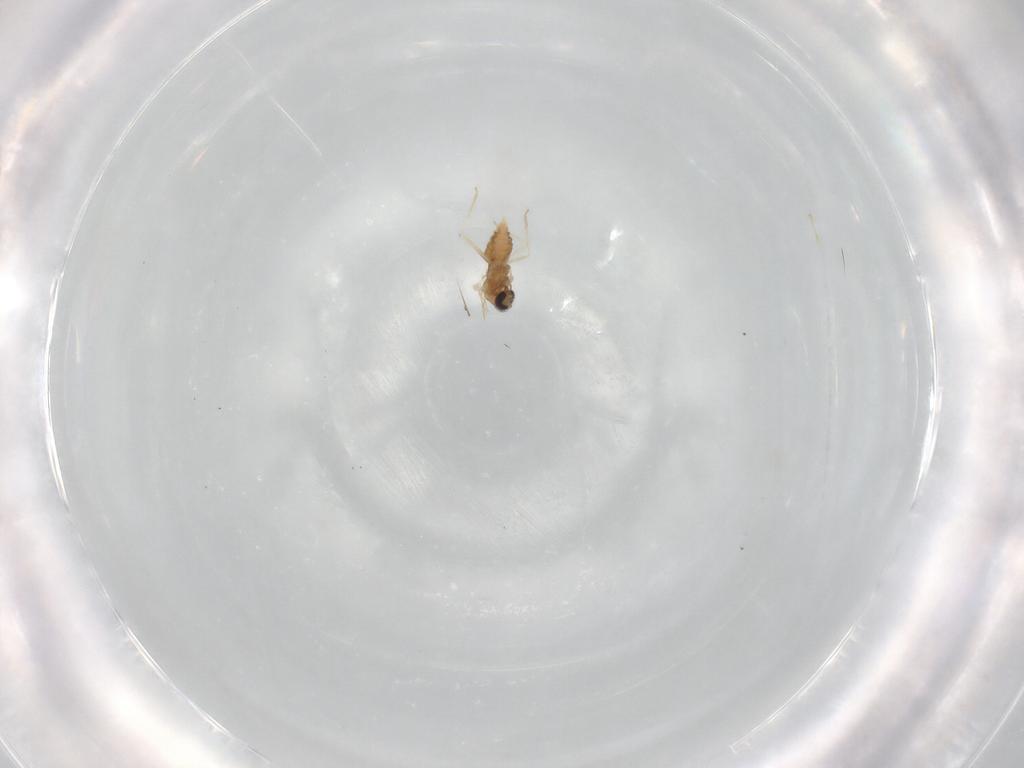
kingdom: Animalia
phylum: Arthropoda
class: Insecta
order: Diptera
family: Cecidomyiidae
